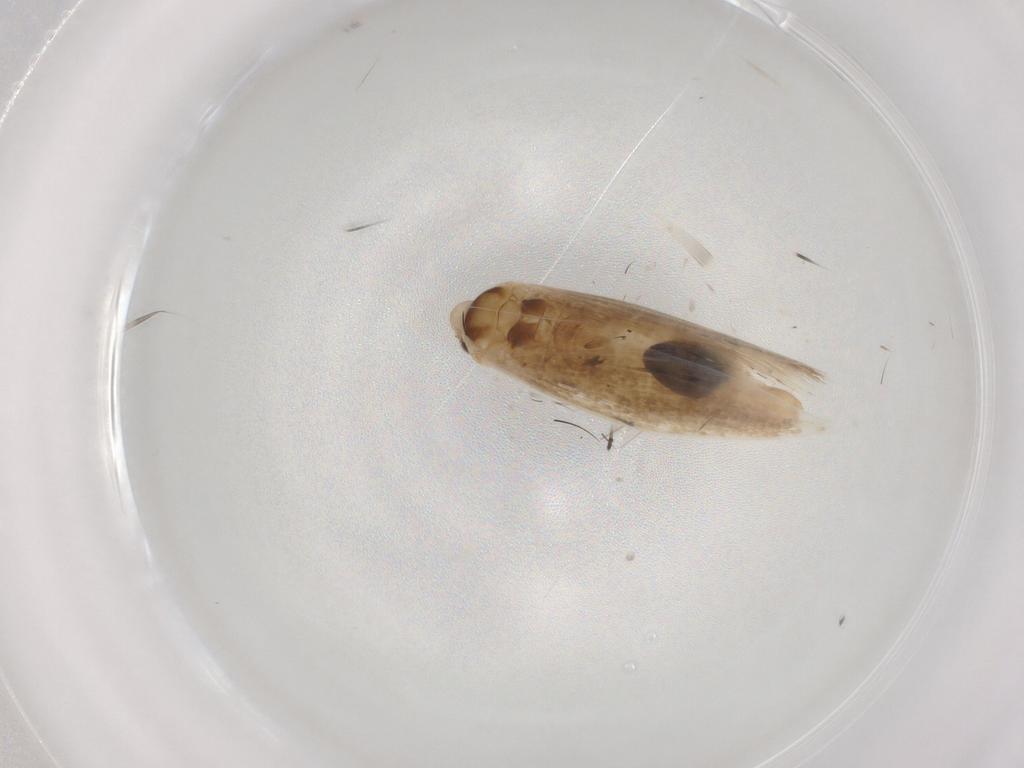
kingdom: Animalia
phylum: Arthropoda
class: Insecta
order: Lepidoptera
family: Bucculatricidae
